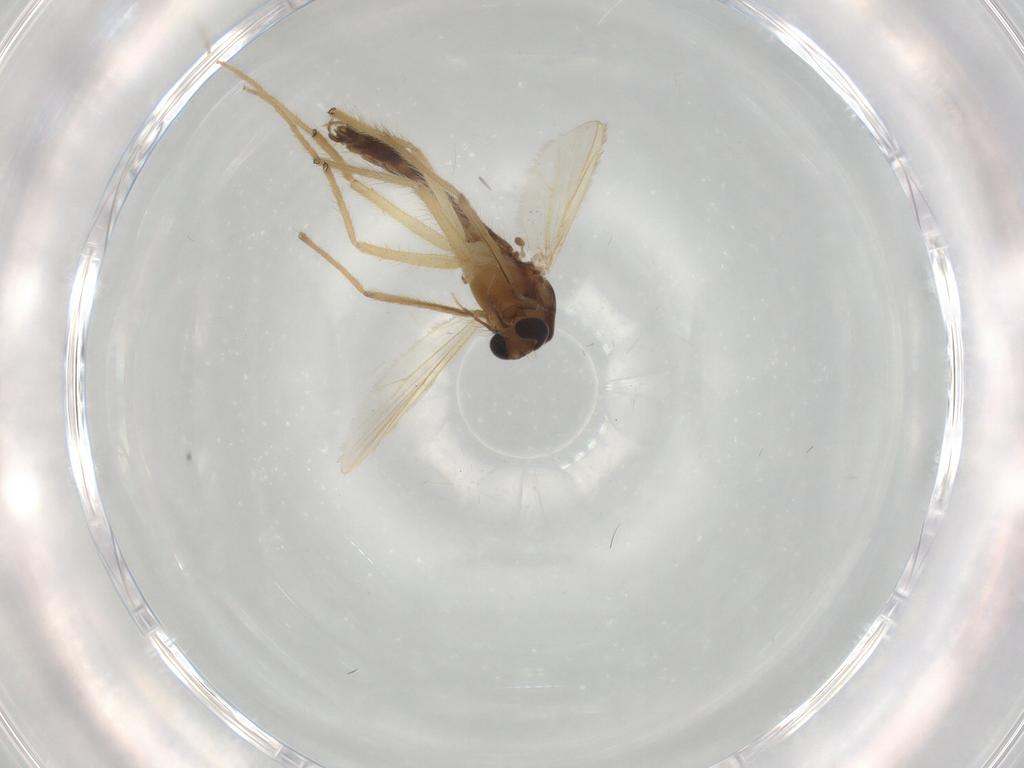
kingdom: Animalia
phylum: Arthropoda
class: Insecta
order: Diptera
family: Chironomidae
